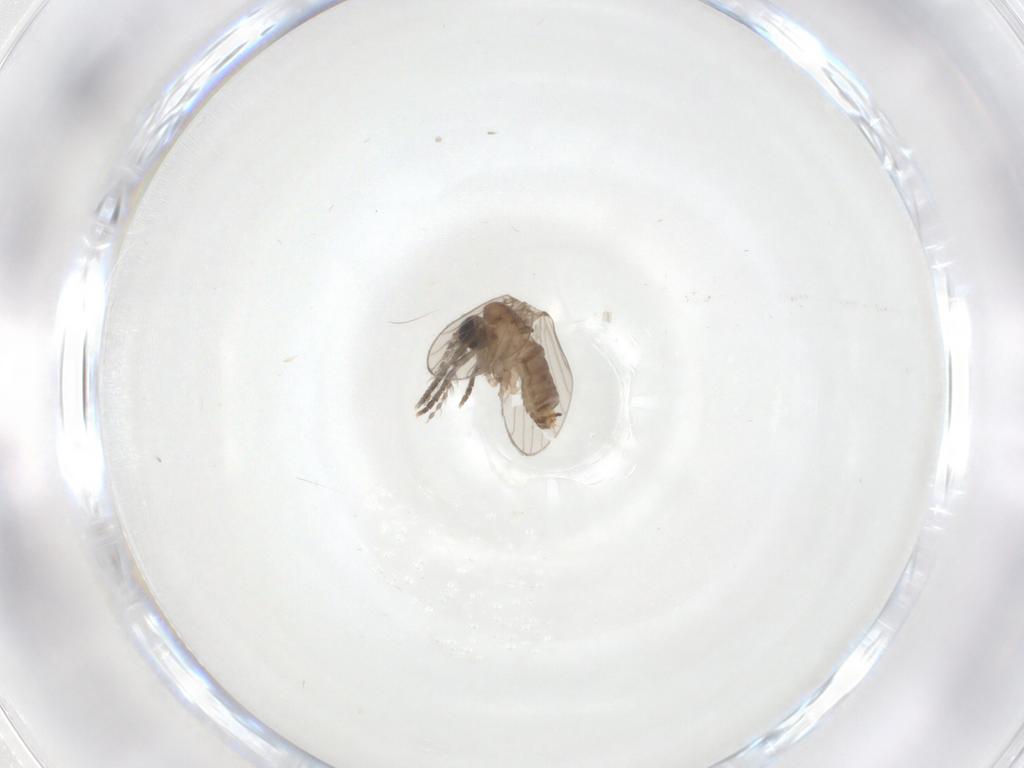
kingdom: Animalia
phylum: Arthropoda
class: Insecta
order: Diptera
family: Psychodidae
